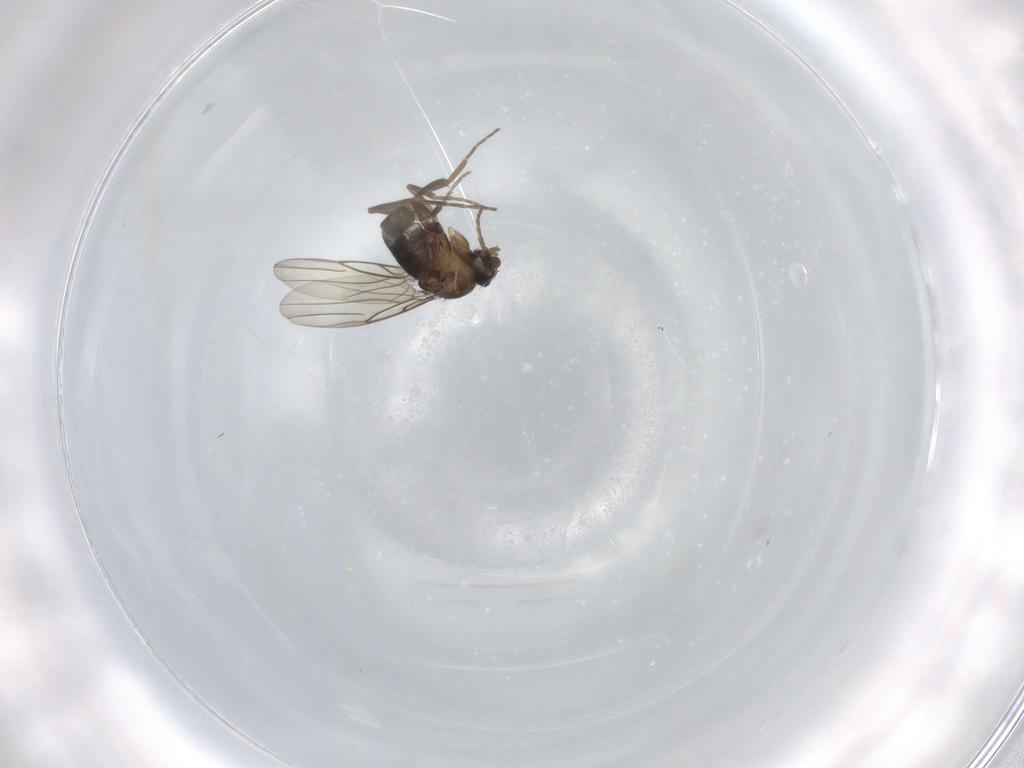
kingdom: Animalia
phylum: Arthropoda
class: Insecta
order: Diptera
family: Phoridae
